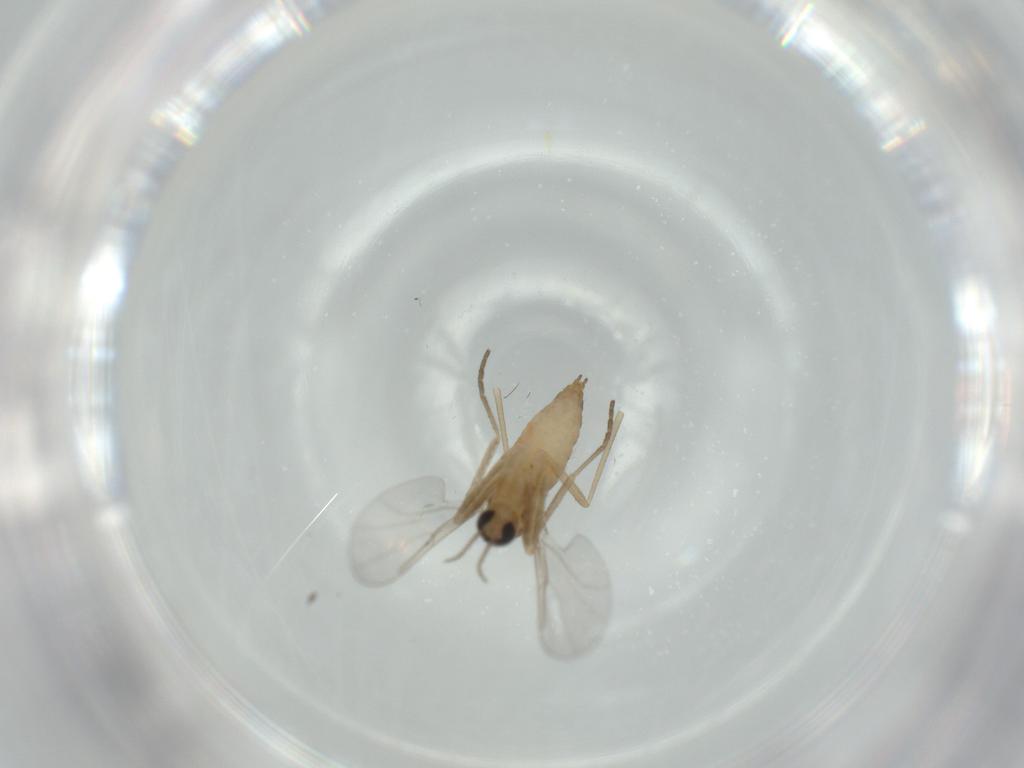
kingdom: Animalia
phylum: Arthropoda
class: Insecta
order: Diptera
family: Cecidomyiidae
